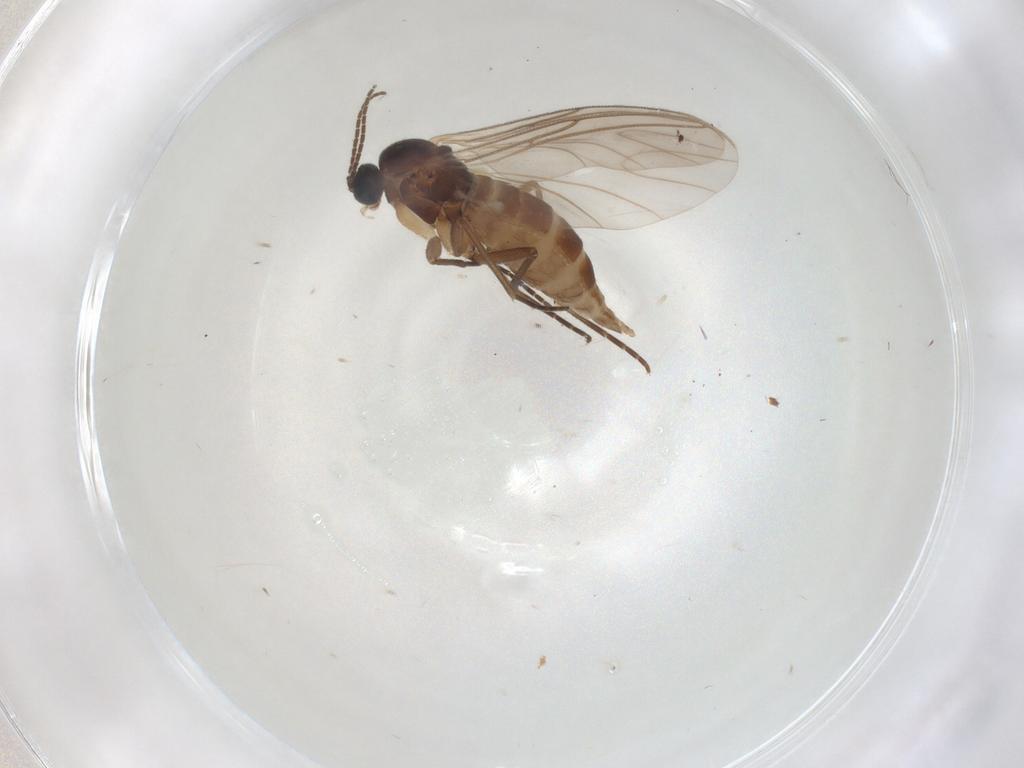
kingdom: Animalia
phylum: Arthropoda
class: Insecta
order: Diptera
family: Sciaridae
